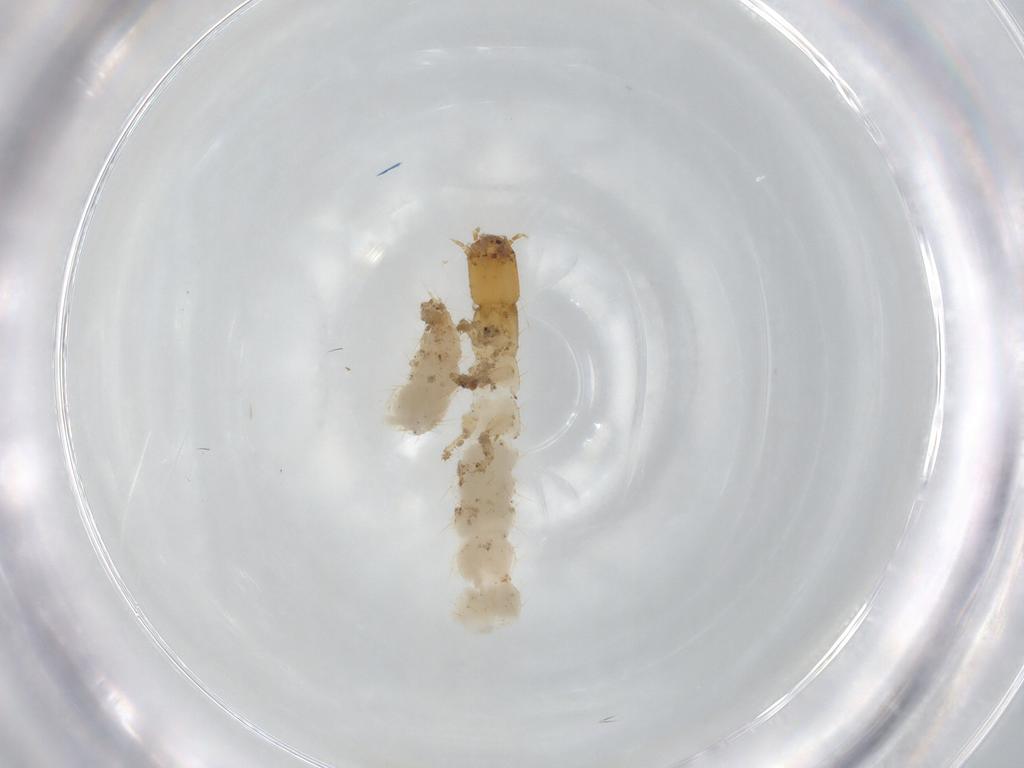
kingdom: Animalia
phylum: Arthropoda
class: Insecta
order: Coleoptera
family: Staphylinidae
